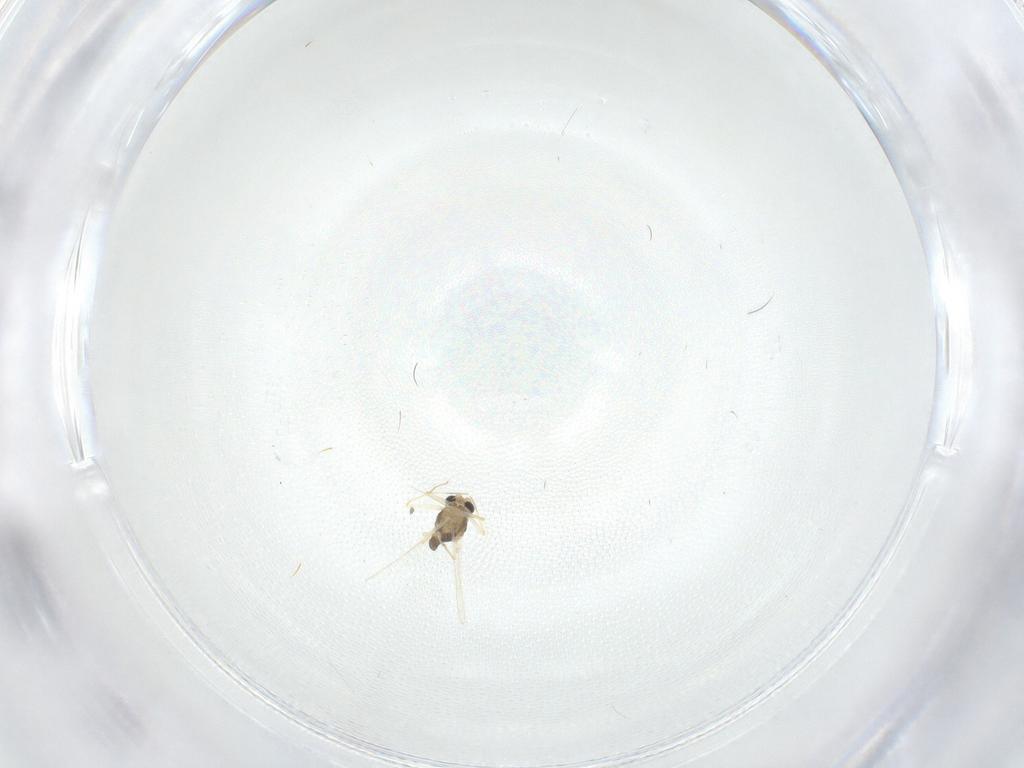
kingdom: Animalia
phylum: Arthropoda
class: Insecta
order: Diptera
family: Chironomidae
